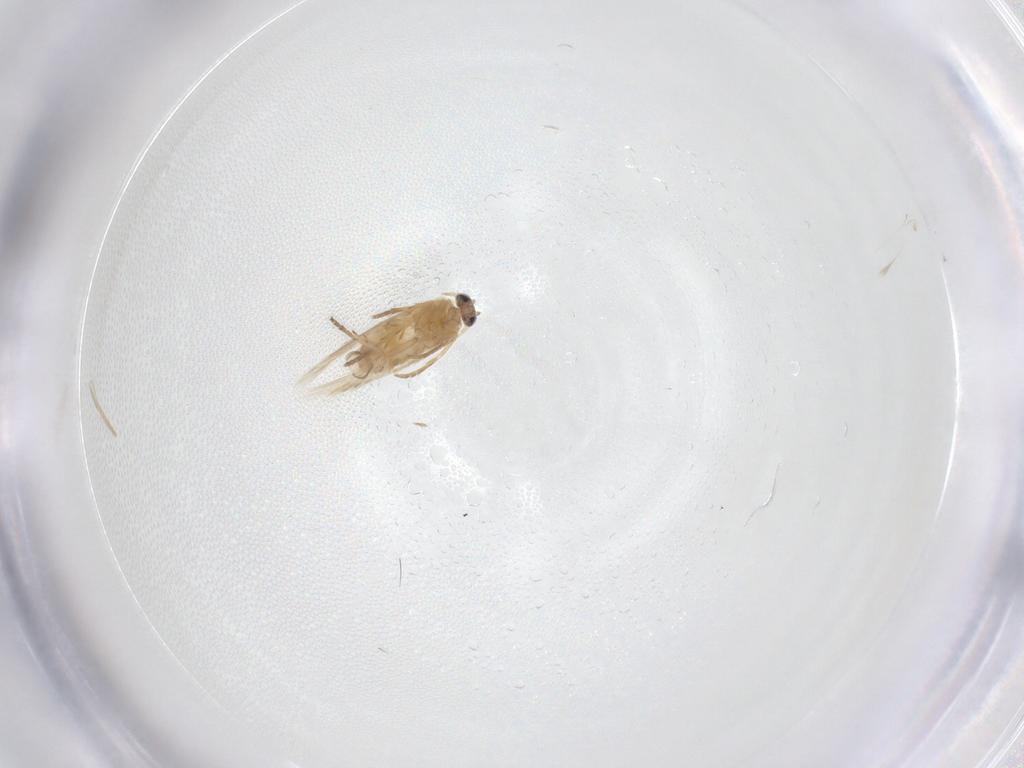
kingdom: Animalia
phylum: Arthropoda
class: Insecta
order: Lepidoptera
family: Nepticulidae
